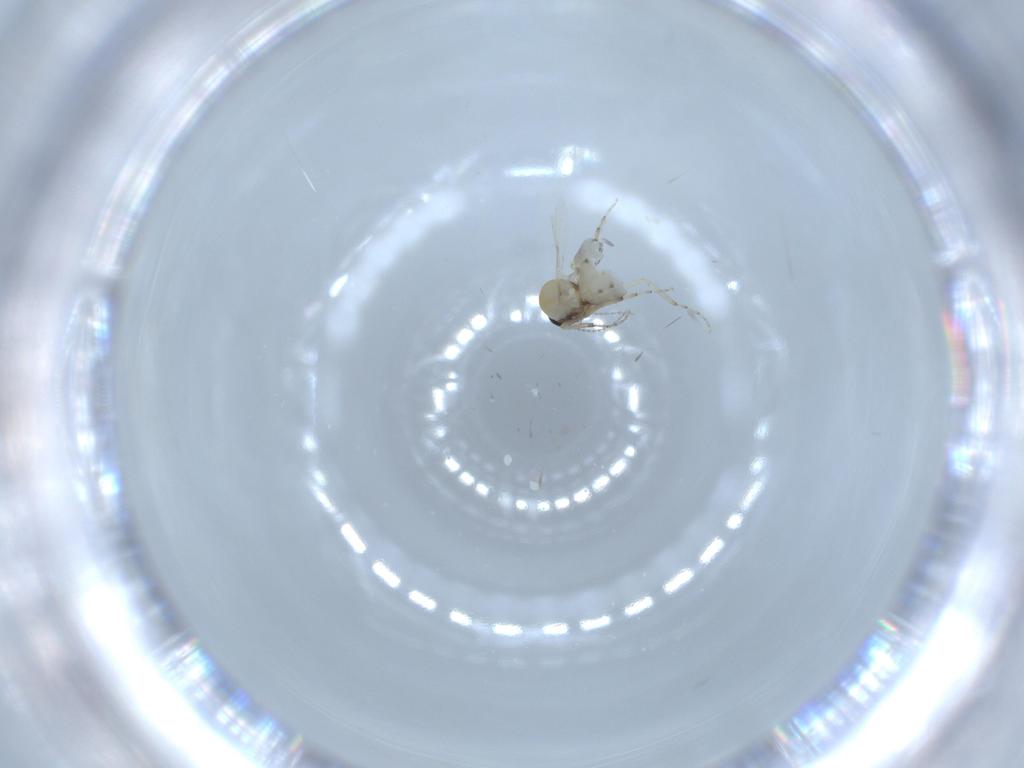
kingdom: Animalia
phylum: Arthropoda
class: Insecta
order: Diptera
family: Ceratopogonidae
